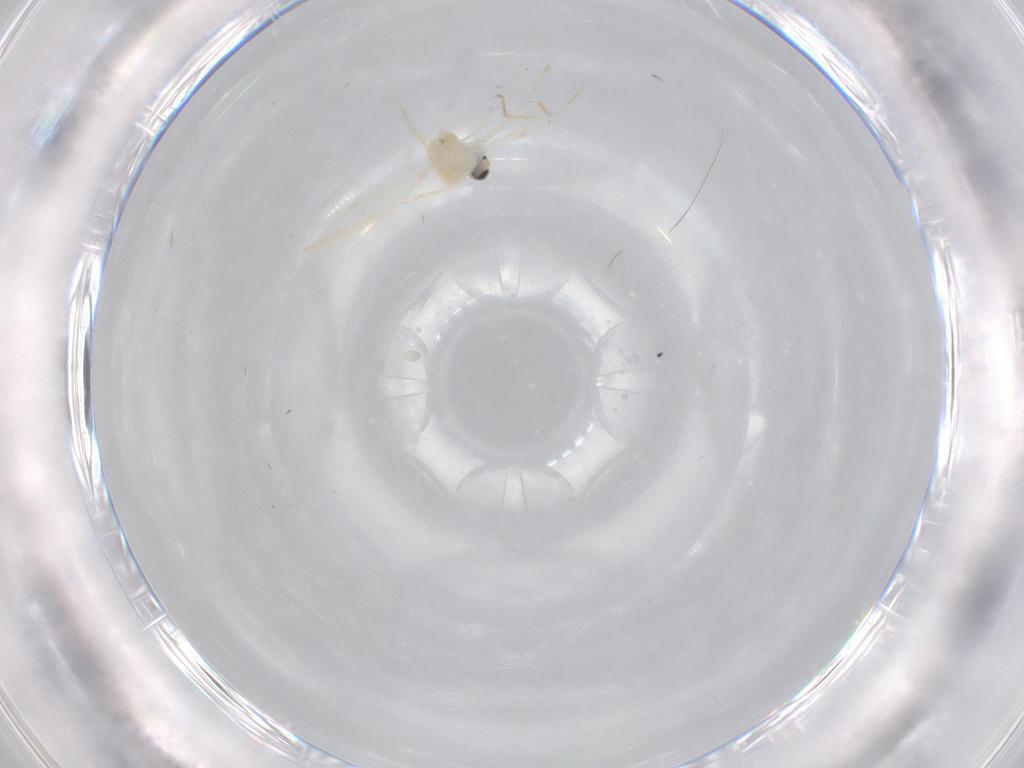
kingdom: Animalia
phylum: Arthropoda
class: Insecta
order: Diptera
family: Cecidomyiidae
